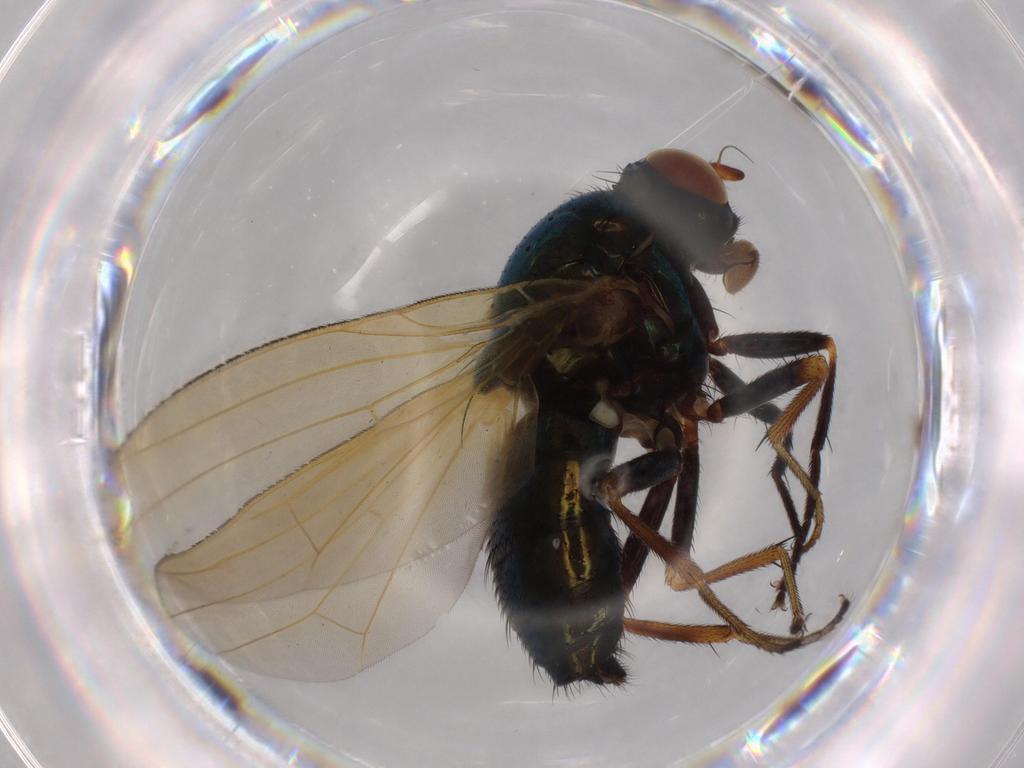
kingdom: Animalia
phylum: Arthropoda
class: Insecta
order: Diptera
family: Lauxaniidae
